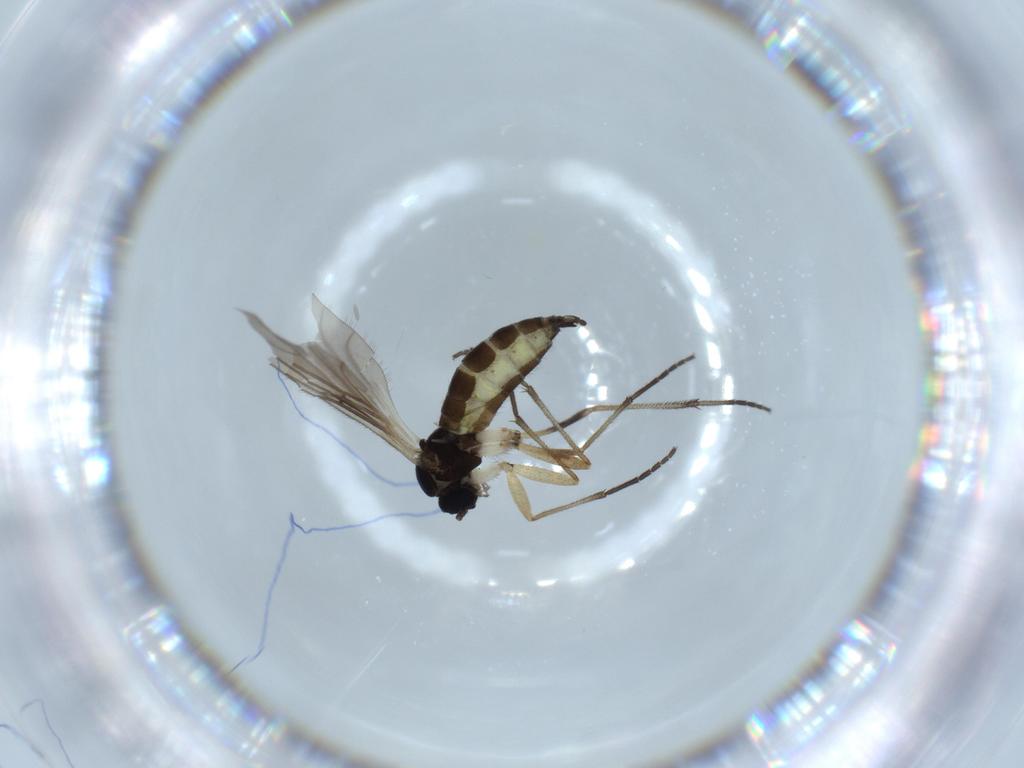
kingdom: Animalia
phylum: Arthropoda
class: Insecta
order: Diptera
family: Sciaridae
